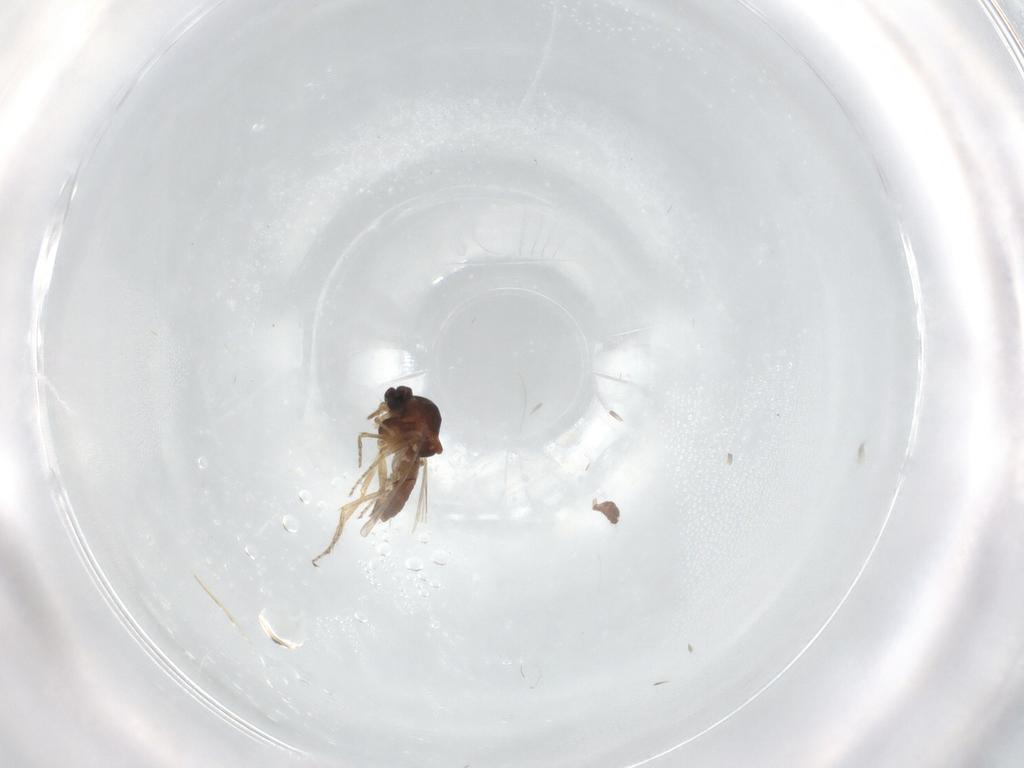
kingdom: Animalia
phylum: Arthropoda
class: Insecta
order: Diptera
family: Ceratopogonidae
